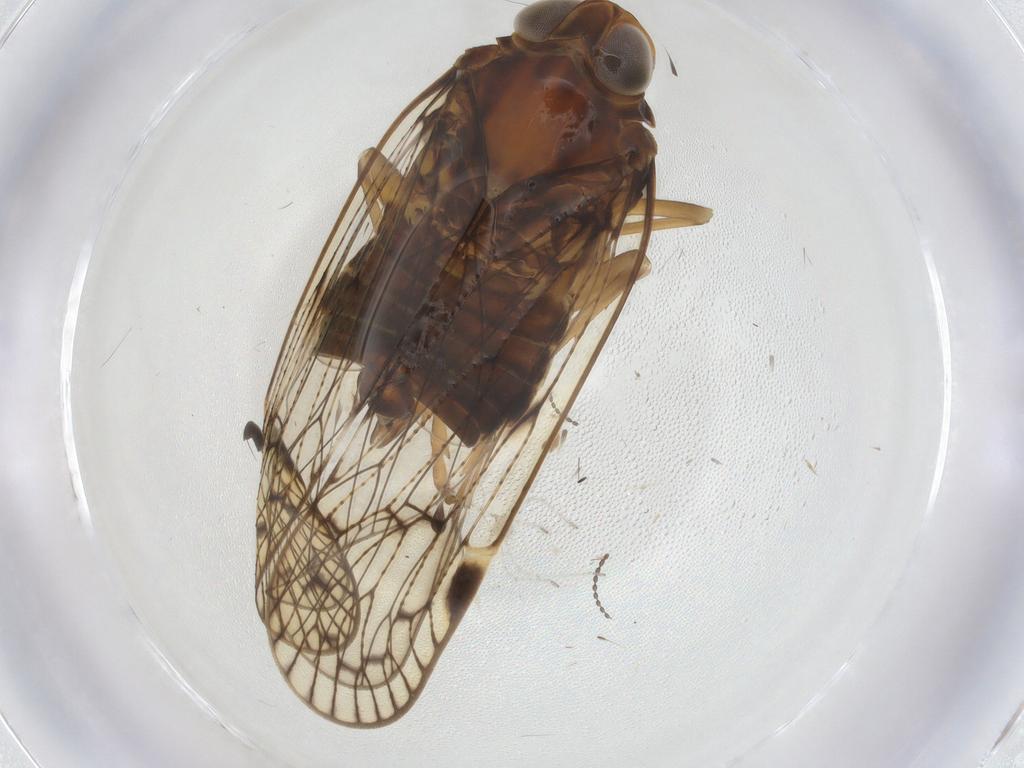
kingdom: Animalia
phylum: Arthropoda
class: Insecta
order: Hemiptera
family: Cixiidae
